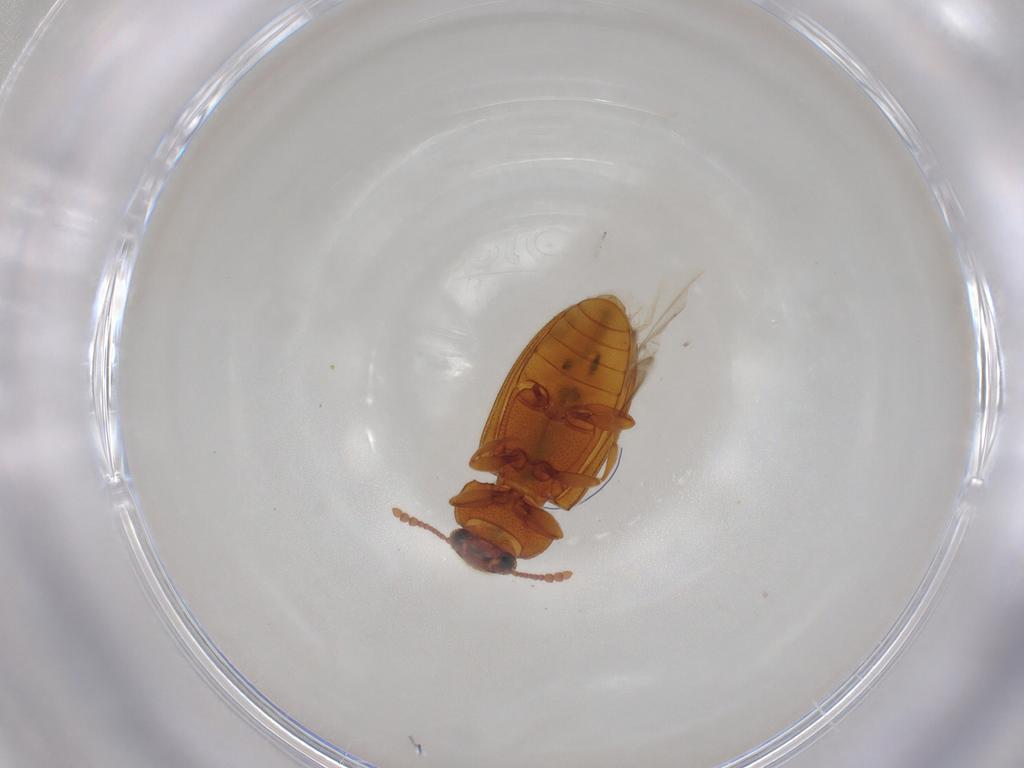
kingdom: Animalia
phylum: Arthropoda
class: Insecta
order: Coleoptera
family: Erotylidae
